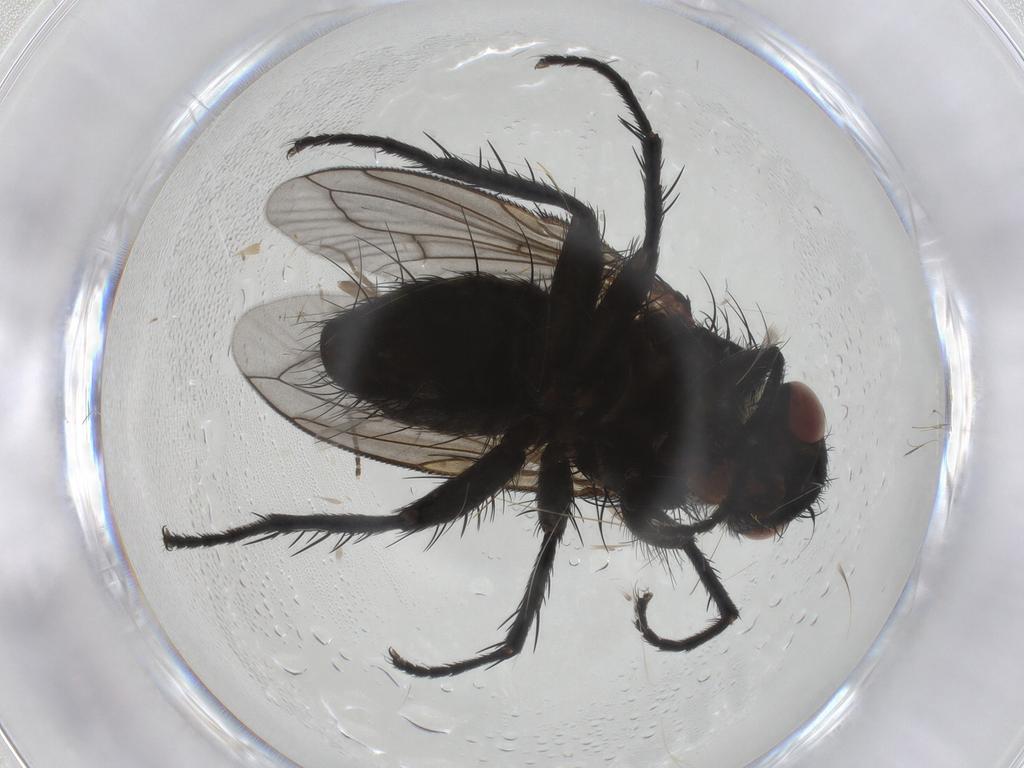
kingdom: Animalia
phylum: Arthropoda
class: Insecta
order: Diptera
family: Tachinidae
